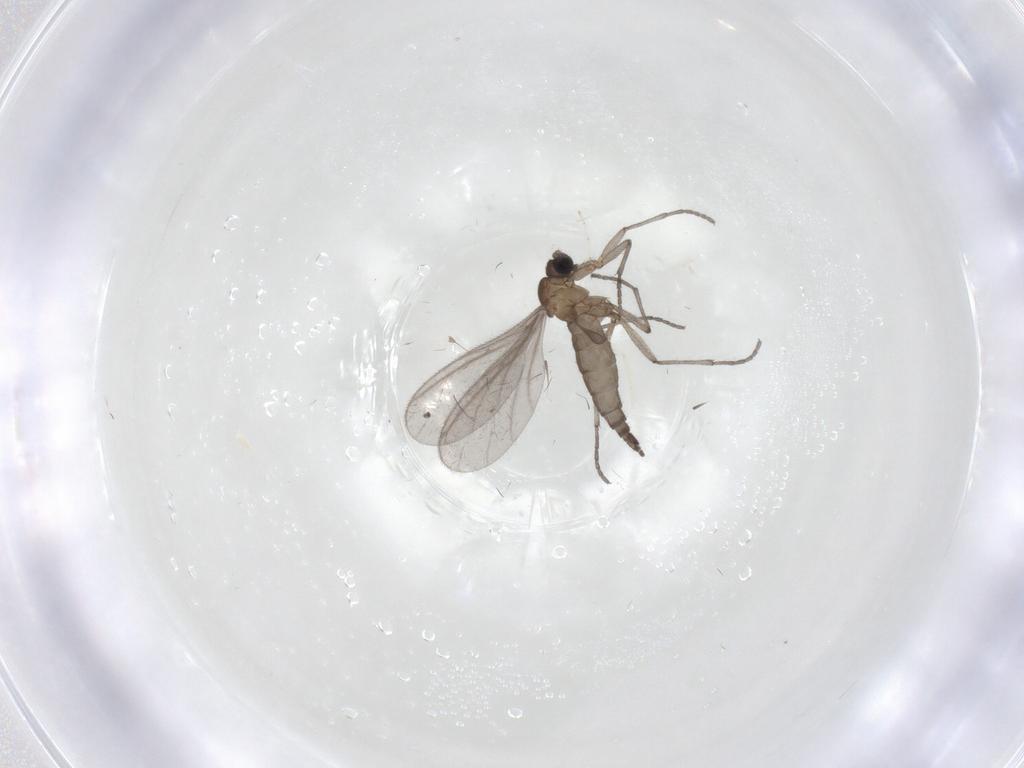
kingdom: Animalia
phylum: Arthropoda
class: Insecta
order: Diptera
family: Sciaridae
